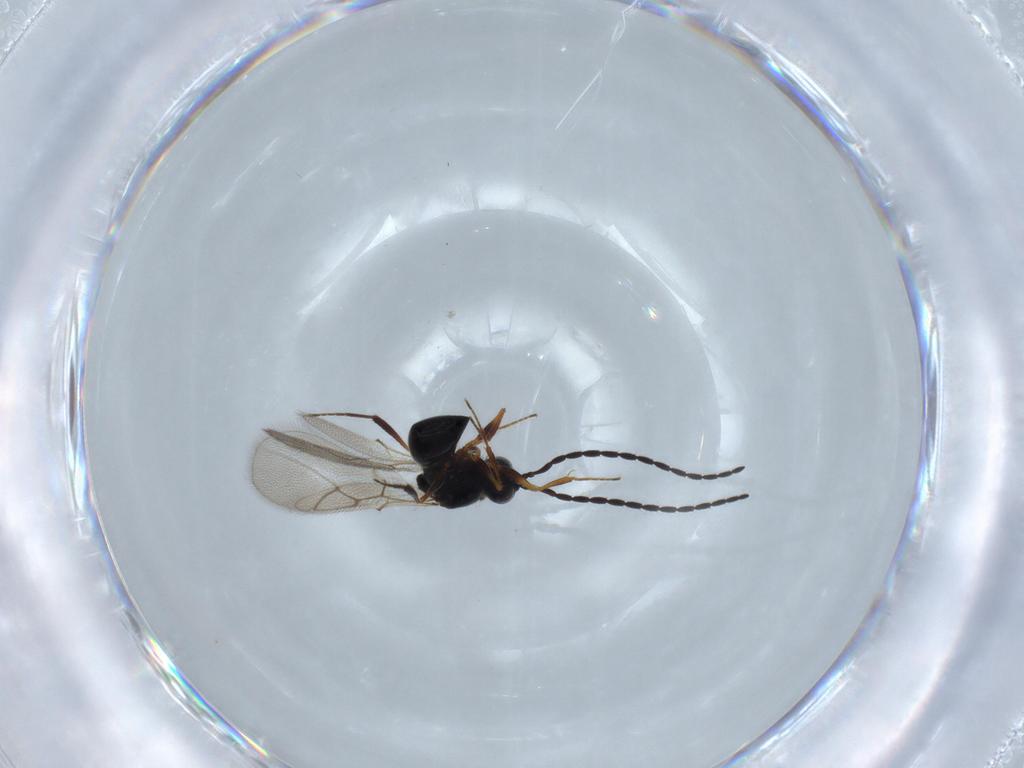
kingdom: Animalia
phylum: Arthropoda
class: Insecta
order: Hymenoptera
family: Figitidae
